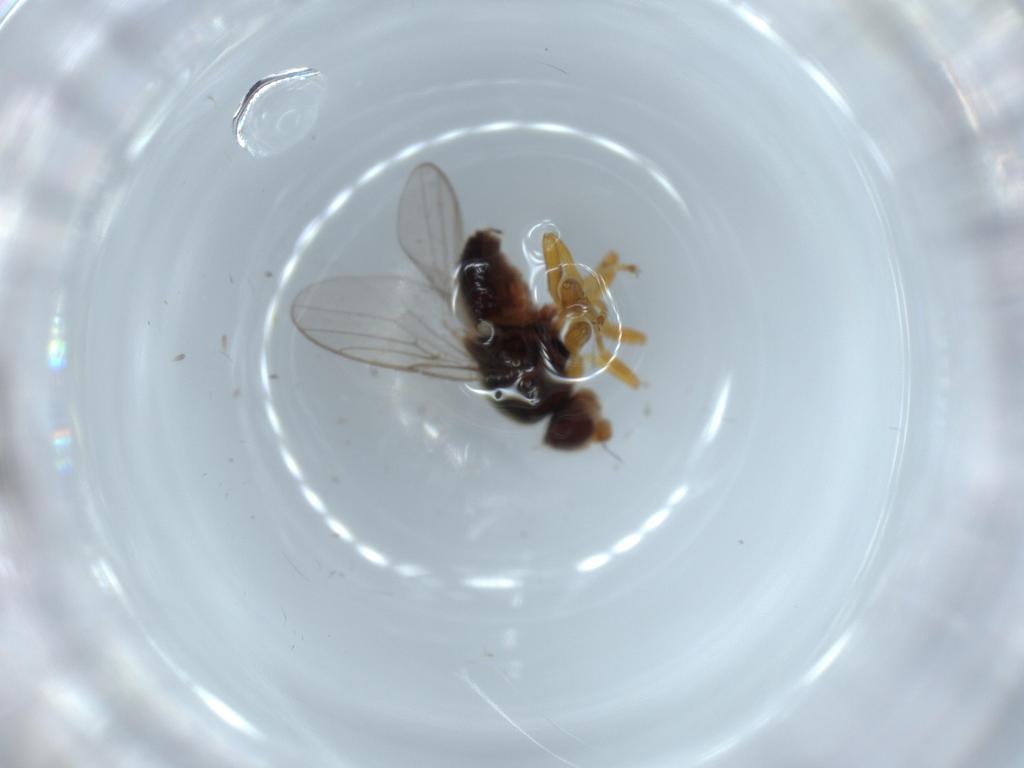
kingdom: Animalia
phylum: Arthropoda
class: Insecta
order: Diptera
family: Chloropidae
